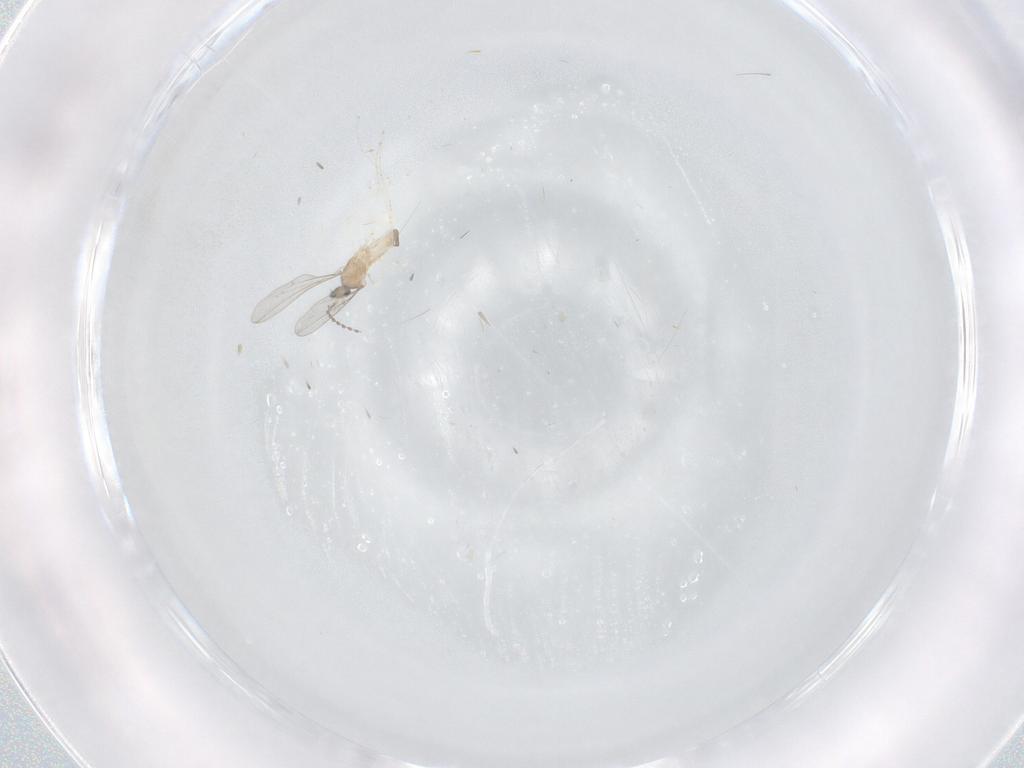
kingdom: Animalia
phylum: Arthropoda
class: Insecta
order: Diptera
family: Cecidomyiidae
